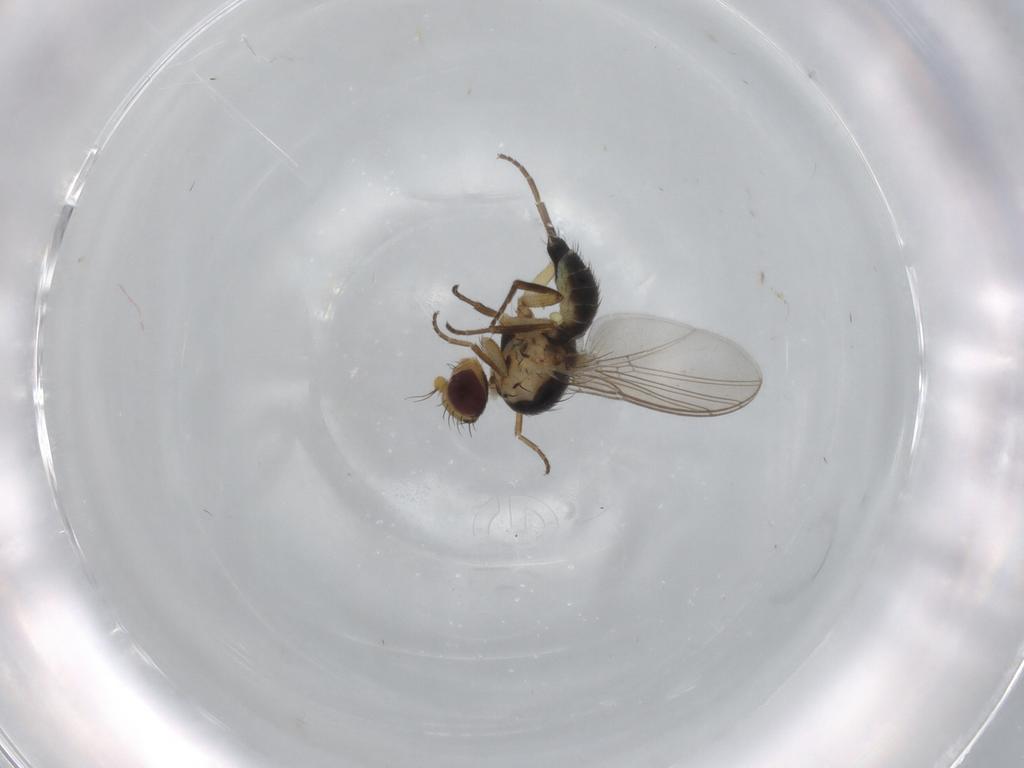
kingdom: Animalia
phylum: Arthropoda
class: Insecta
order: Diptera
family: Agromyzidae
